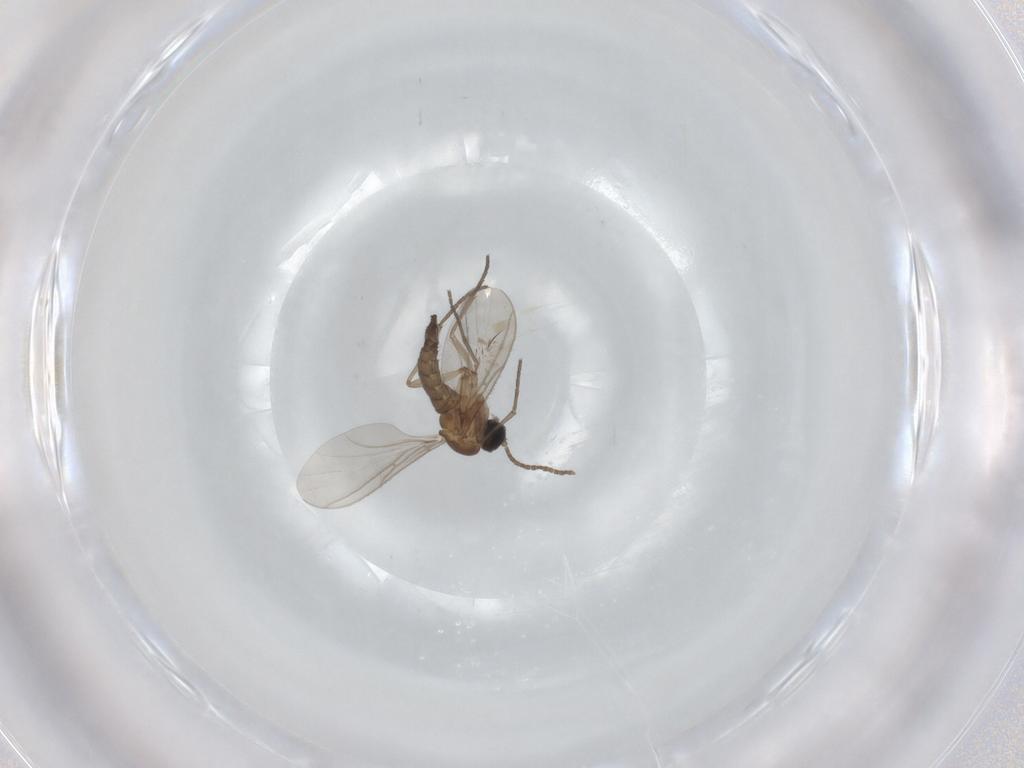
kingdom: Animalia
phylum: Arthropoda
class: Insecta
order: Diptera
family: Sciaridae
